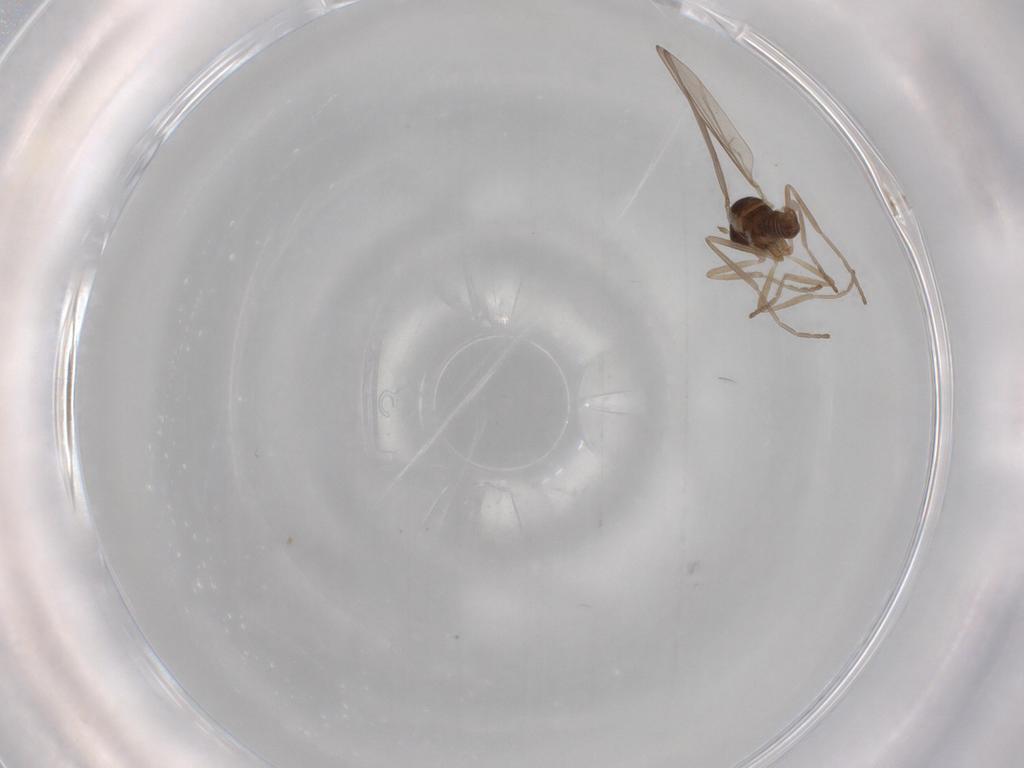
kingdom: Animalia
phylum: Arthropoda
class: Insecta
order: Diptera
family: Cecidomyiidae
